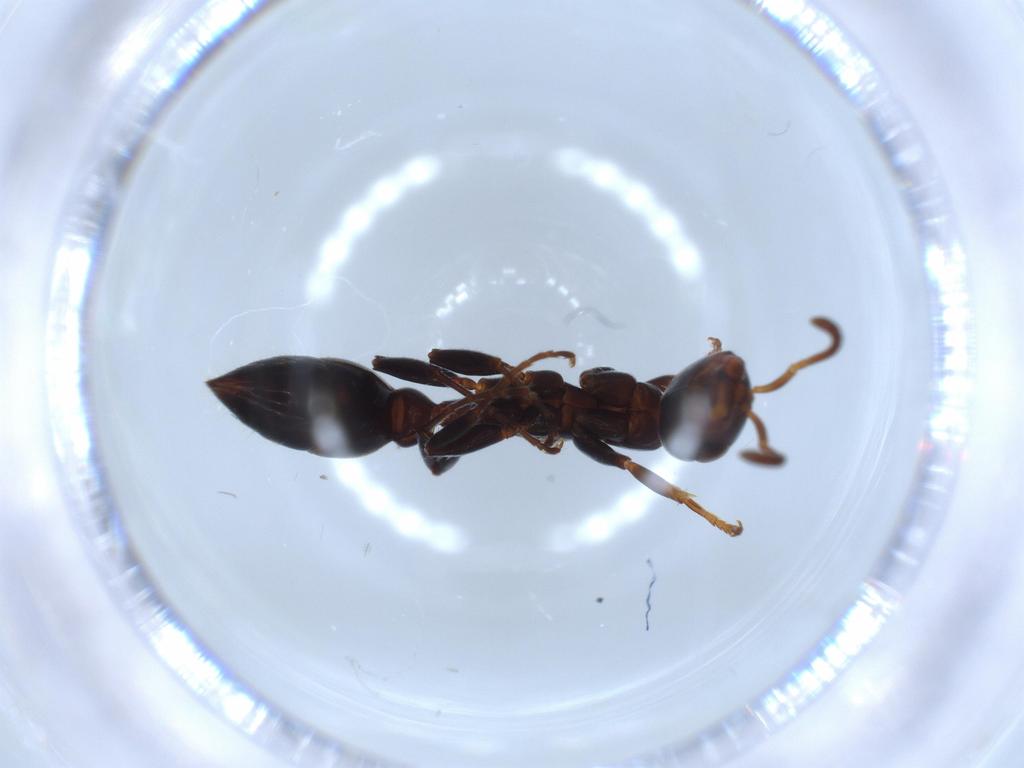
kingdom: Animalia
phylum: Arthropoda
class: Insecta
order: Hymenoptera
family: Formicidae
